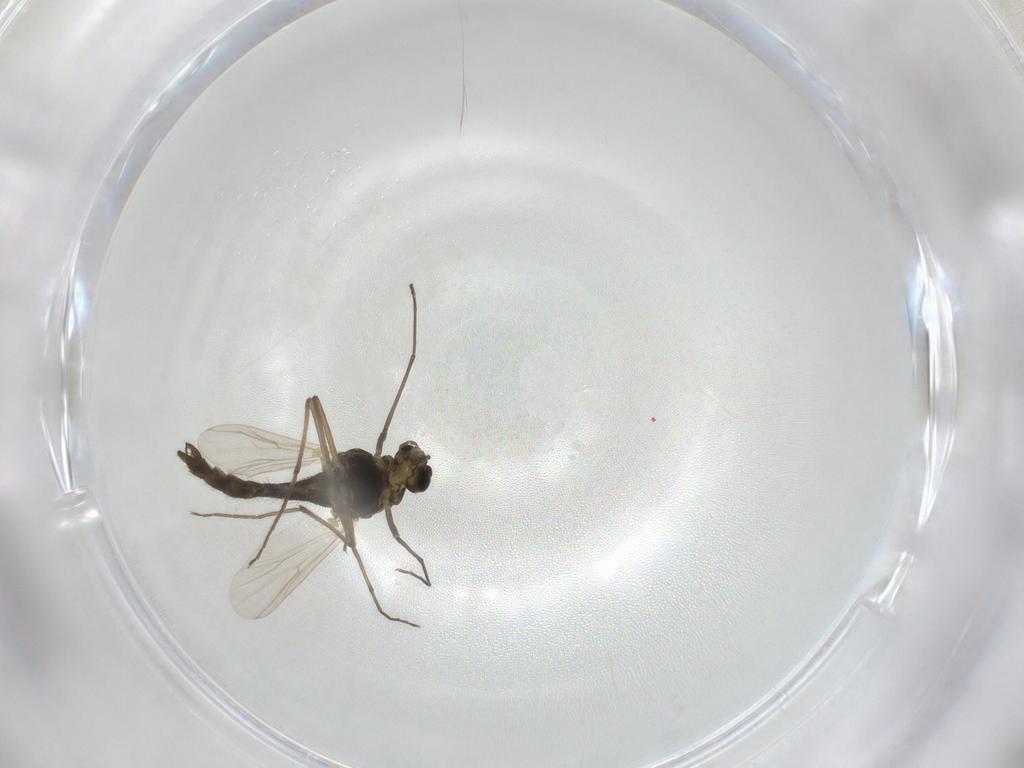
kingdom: Animalia
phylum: Arthropoda
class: Insecta
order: Diptera
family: Chironomidae
